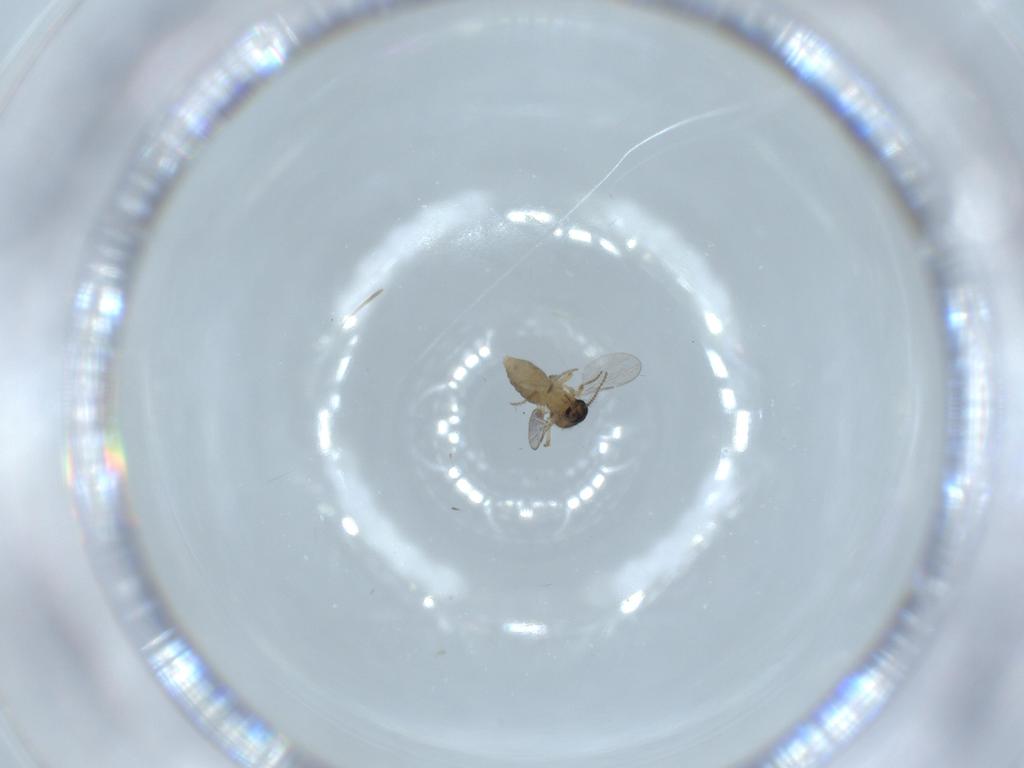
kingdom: Animalia
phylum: Arthropoda
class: Insecta
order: Diptera
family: Ceratopogonidae
